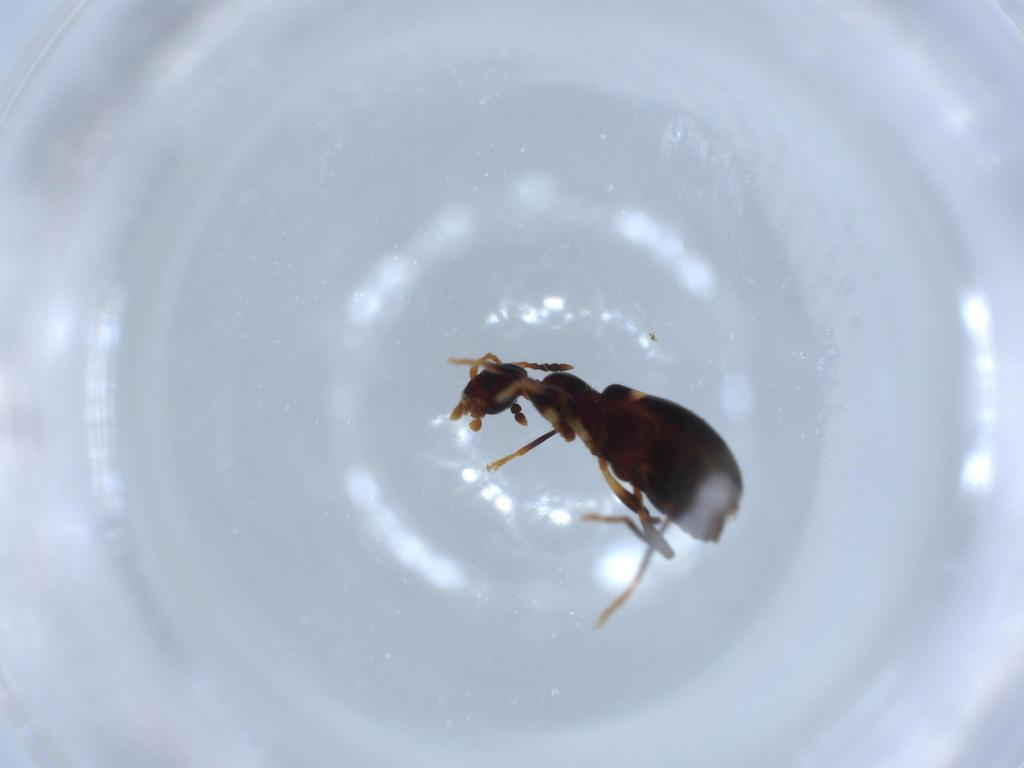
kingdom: Animalia
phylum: Arthropoda
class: Insecta
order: Coleoptera
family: Anthicidae
